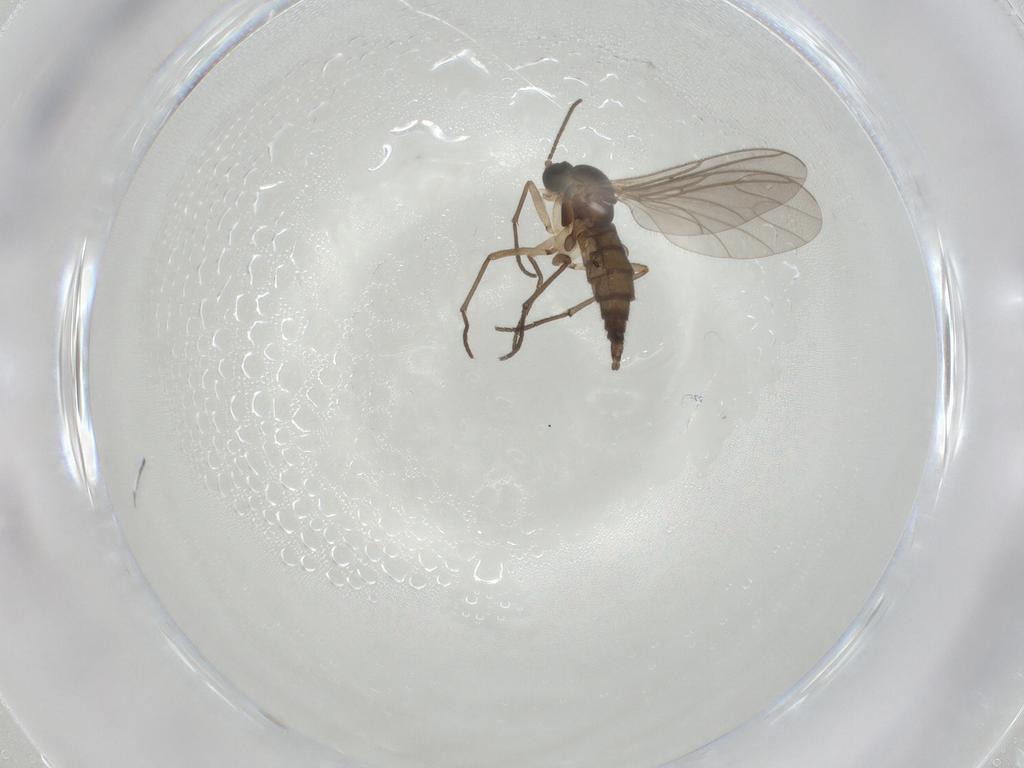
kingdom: Animalia
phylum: Arthropoda
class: Insecta
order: Diptera
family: Sciaridae
